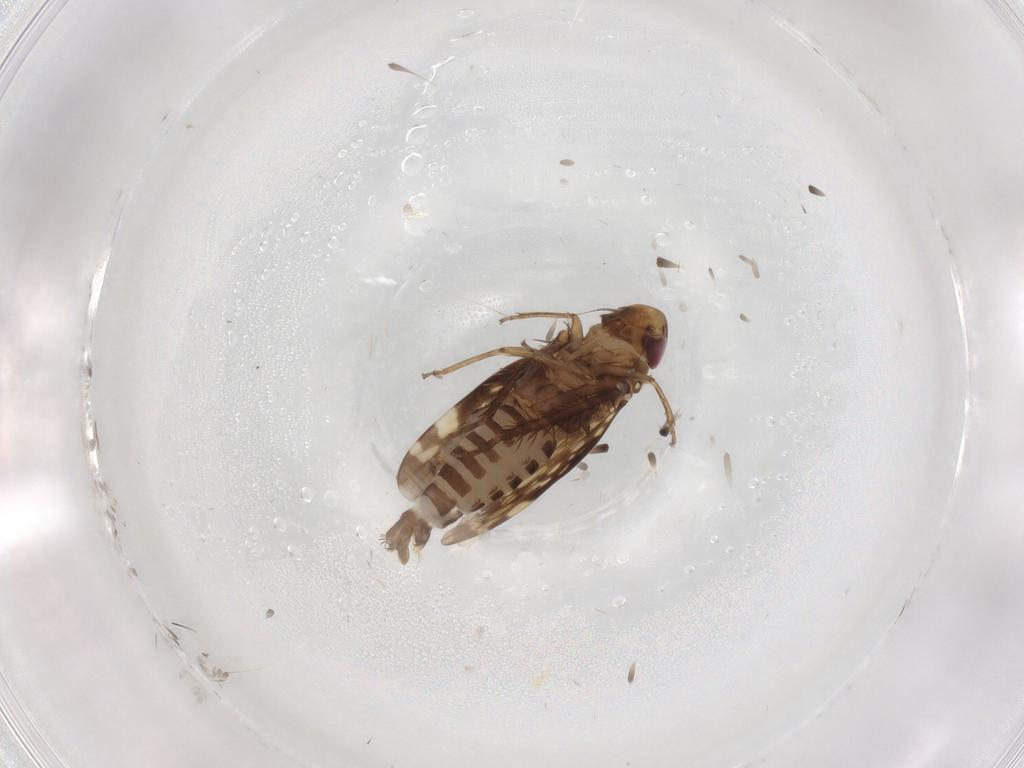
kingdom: Animalia
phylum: Arthropoda
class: Insecta
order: Hemiptera
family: Cicadellidae
